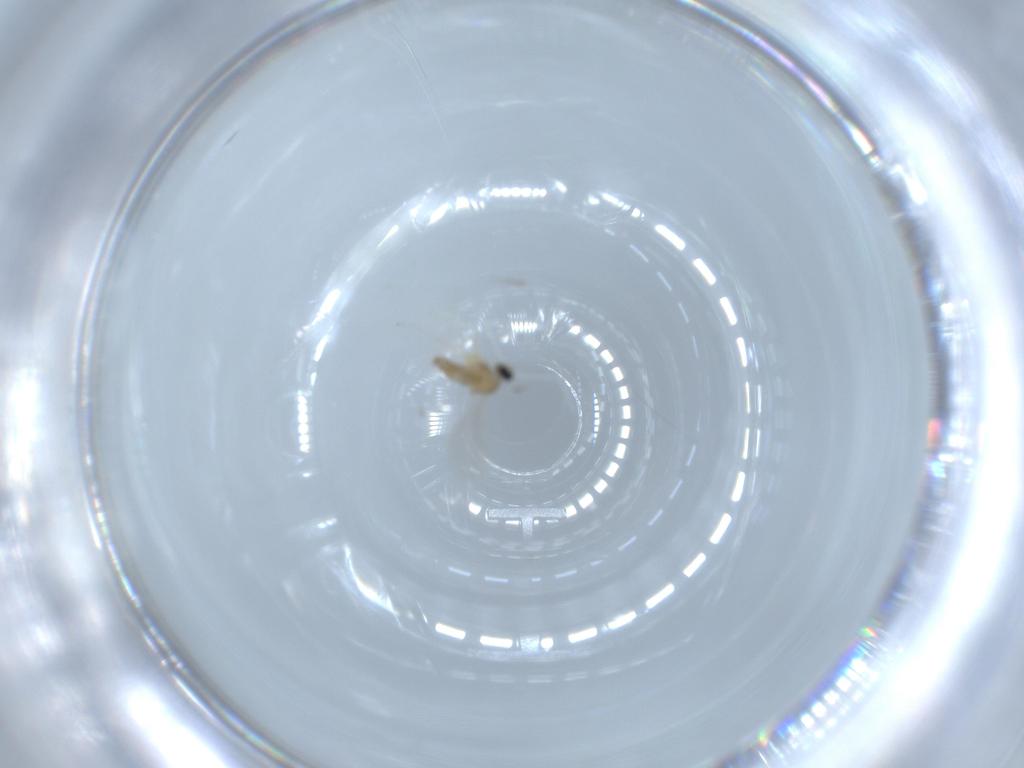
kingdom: Animalia
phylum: Arthropoda
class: Insecta
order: Diptera
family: Cecidomyiidae
